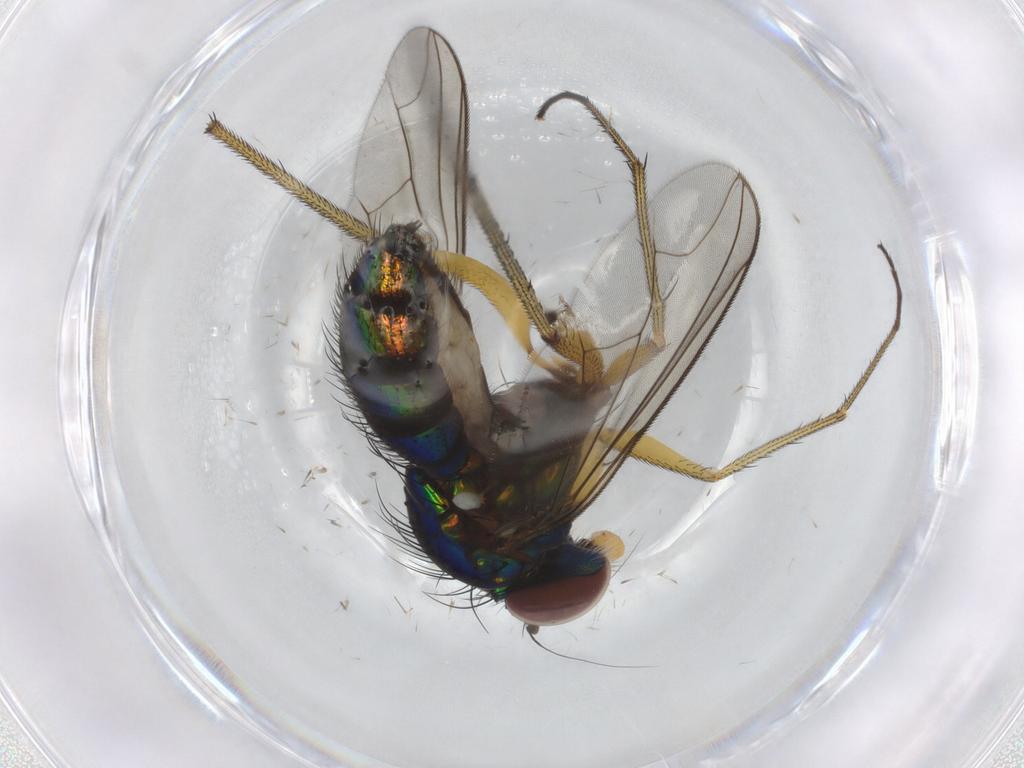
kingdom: Animalia
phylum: Arthropoda
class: Insecta
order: Diptera
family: Dolichopodidae
